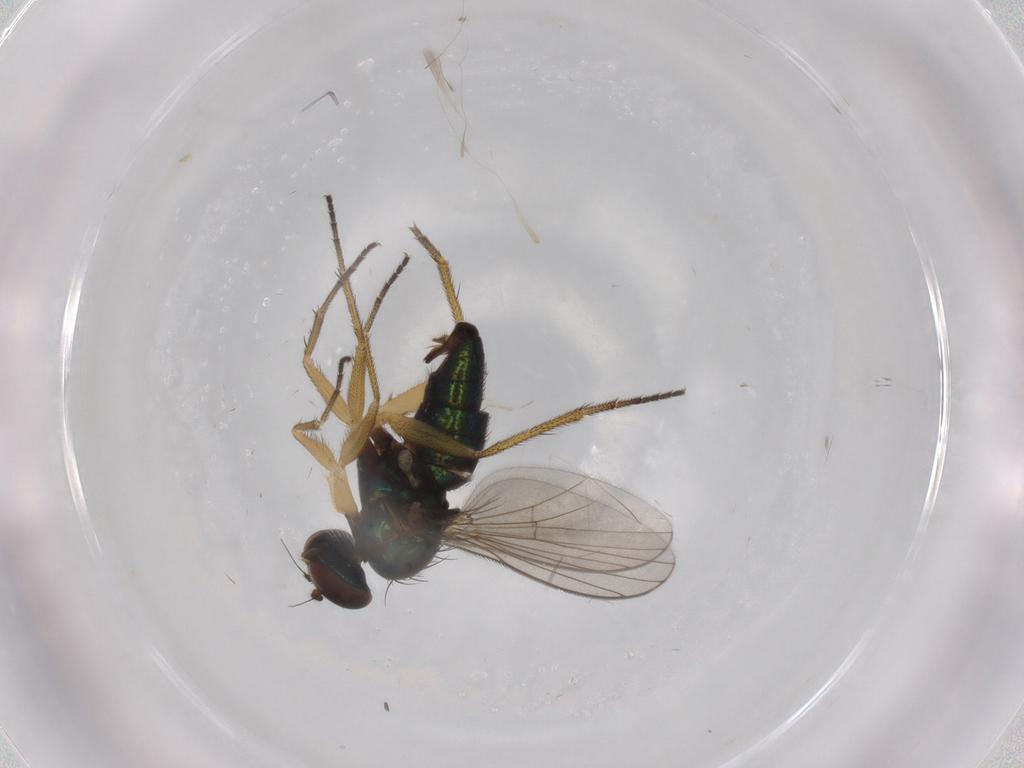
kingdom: Animalia
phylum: Arthropoda
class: Insecta
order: Diptera
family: Dolichopodidae
